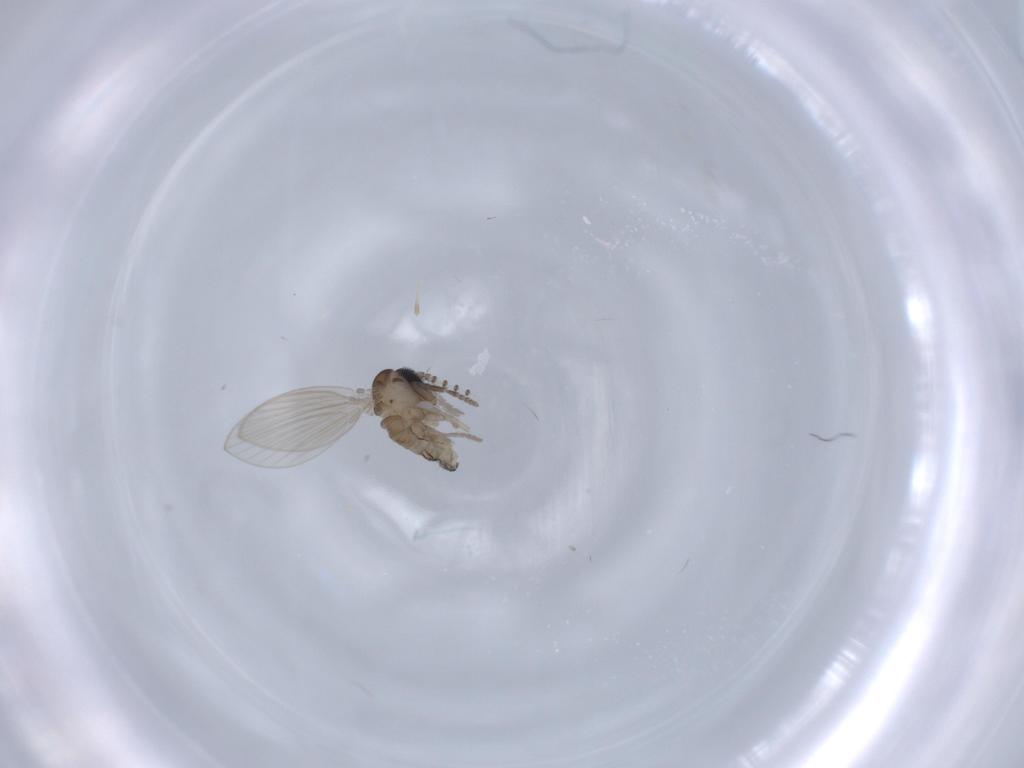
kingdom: Animalia
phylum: Arthropoda
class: Insecta
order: Diptera
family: Psychodidae
